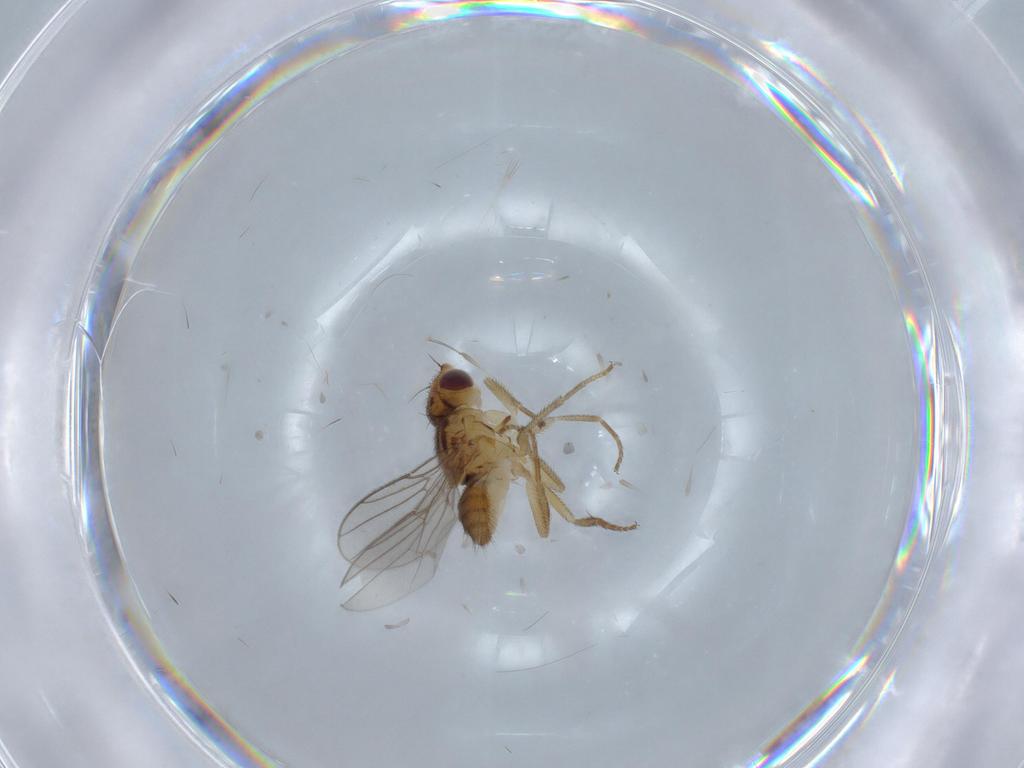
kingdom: Animalia
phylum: Arthropoda
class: Insecta
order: Diptera
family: Chloropidae
